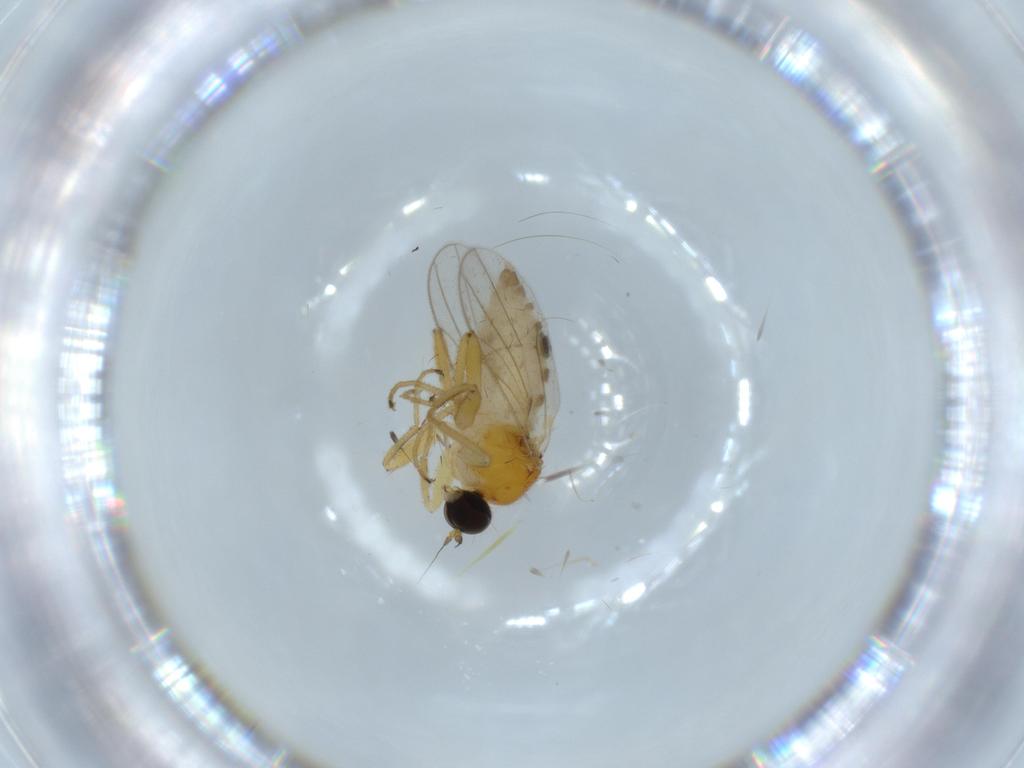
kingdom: Animalia
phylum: Arthropoda
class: Insecta
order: Diptera
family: Hybotidae
